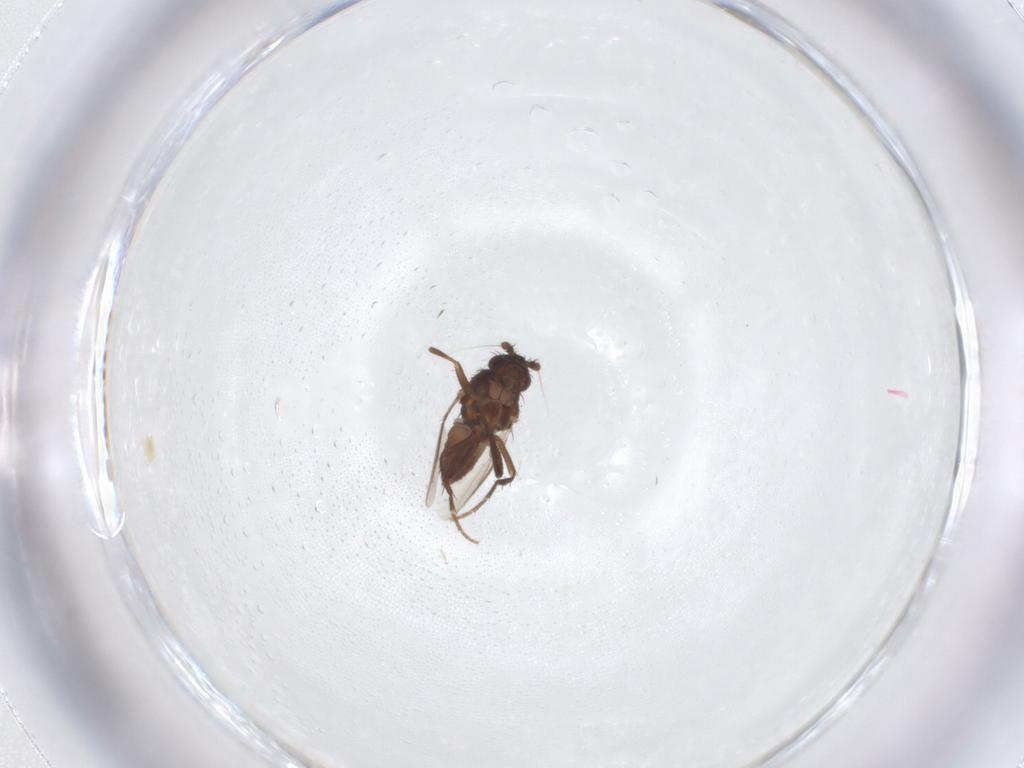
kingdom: Animalia
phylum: Arthropoda
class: Insecta
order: Diptera
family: Sphaeroceridae
